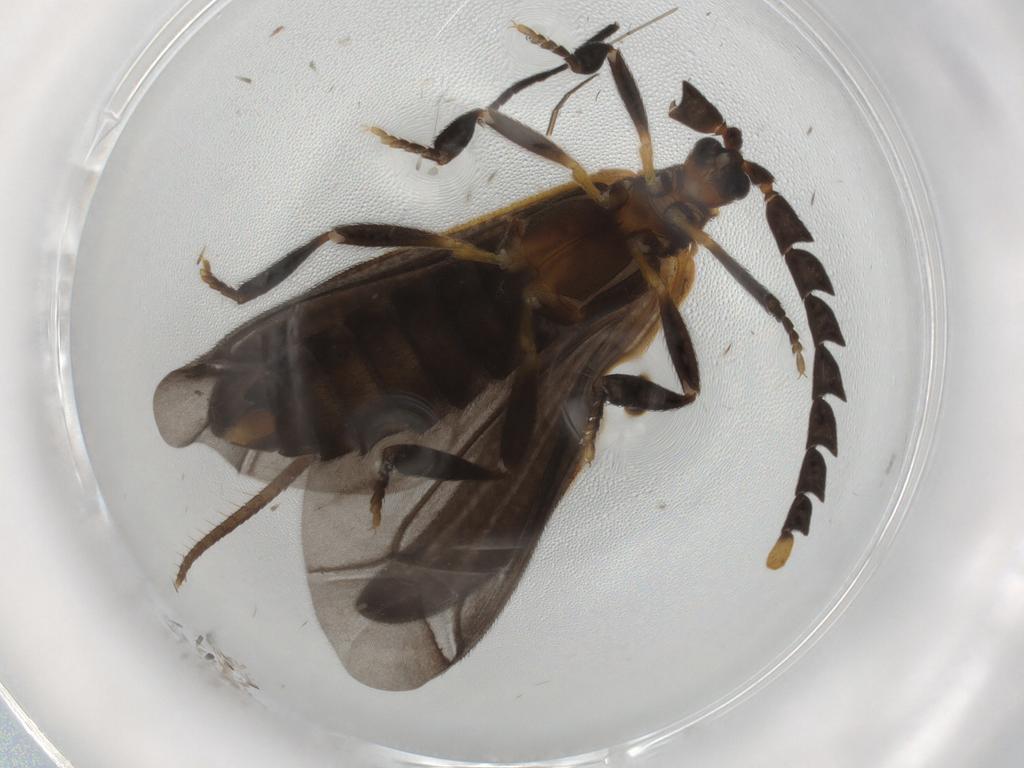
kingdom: Animalia
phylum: Arthropoda
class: Insecta
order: Coleoptera
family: Lycidae
